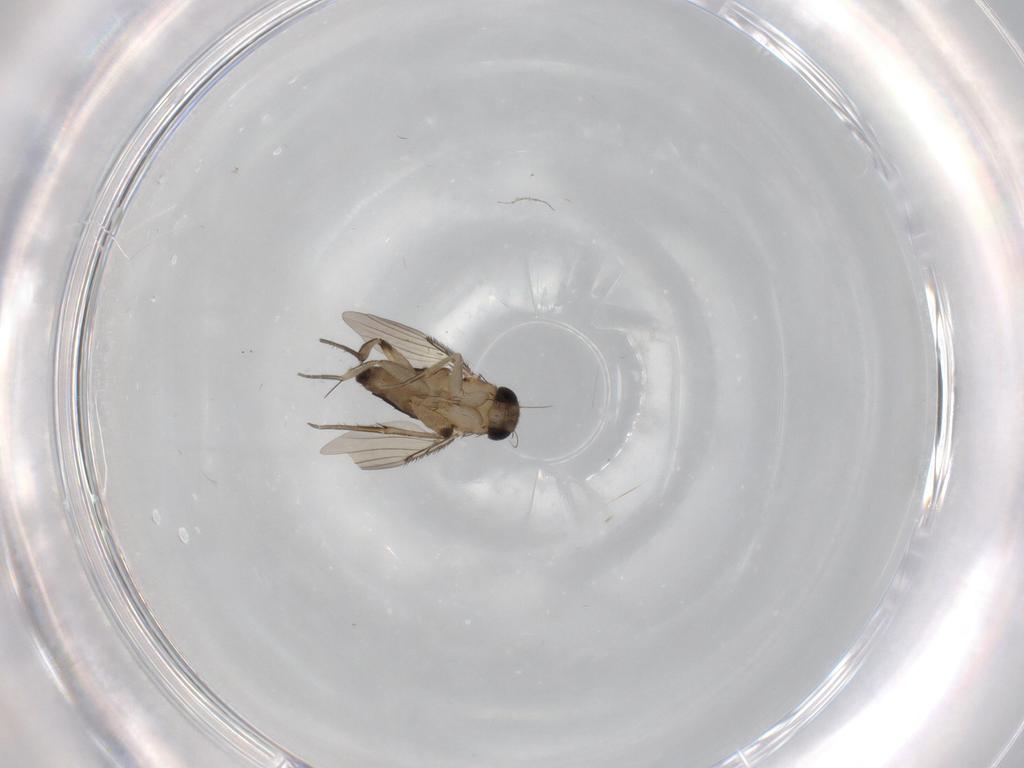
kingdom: Animalia
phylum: Arthropoda
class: Insecta
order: Diptera
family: Phoridae
